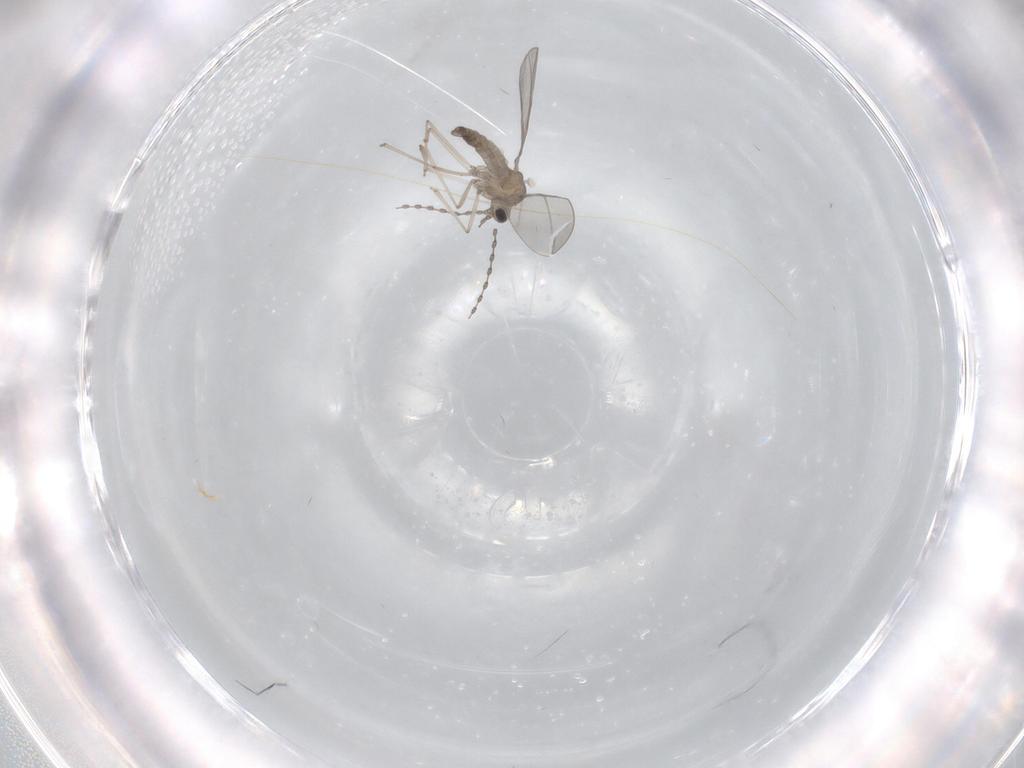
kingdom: Animalia
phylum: Arthropoda
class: Insecta
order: Diptera
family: Cecidomyiidae
